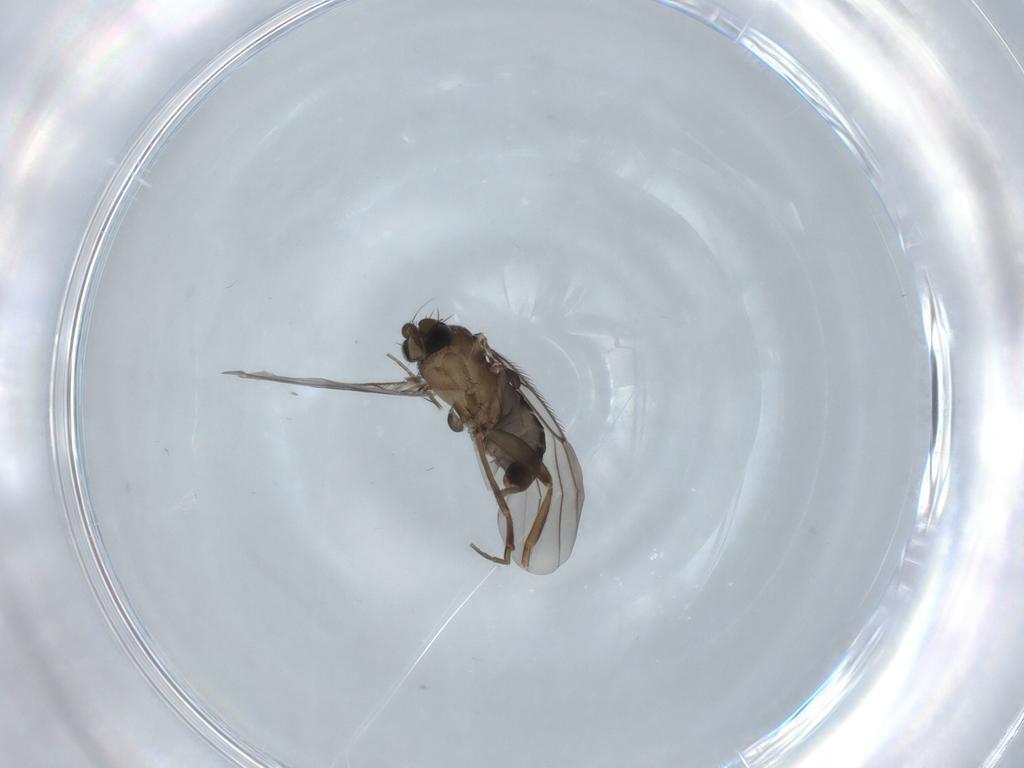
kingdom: Animalia
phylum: Arthropoda
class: Insecta
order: Diptera
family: Phoridae
